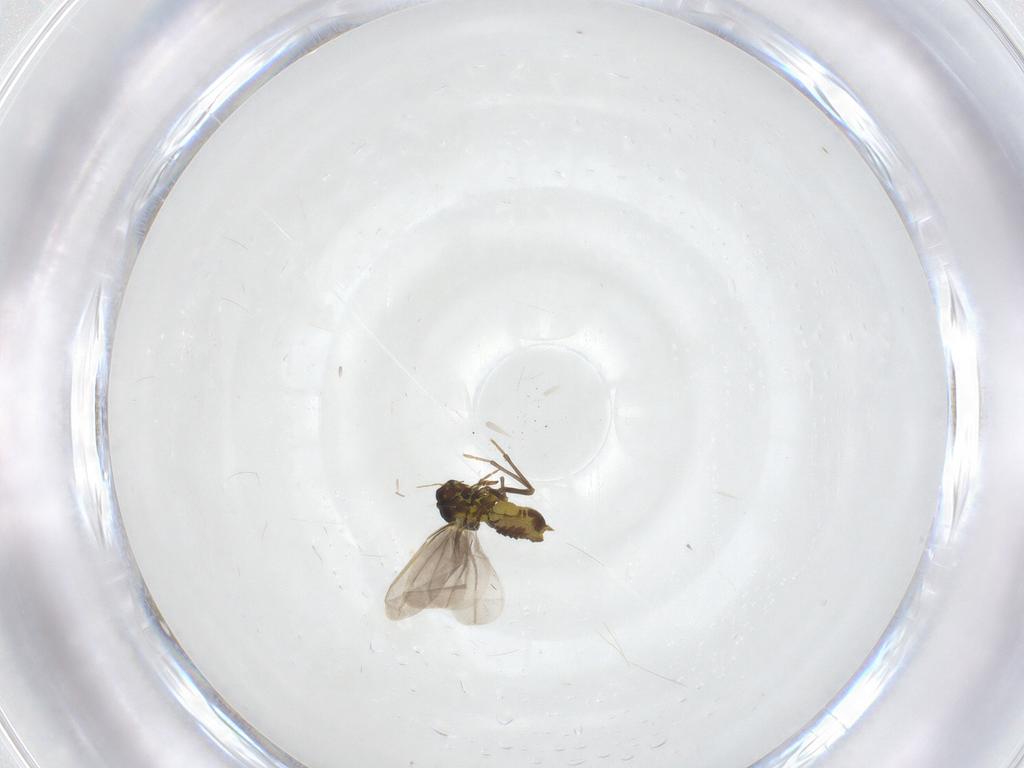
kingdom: Animalia
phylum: Arthropoda
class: Insecta
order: Hemiptera
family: Aleyrodidae
